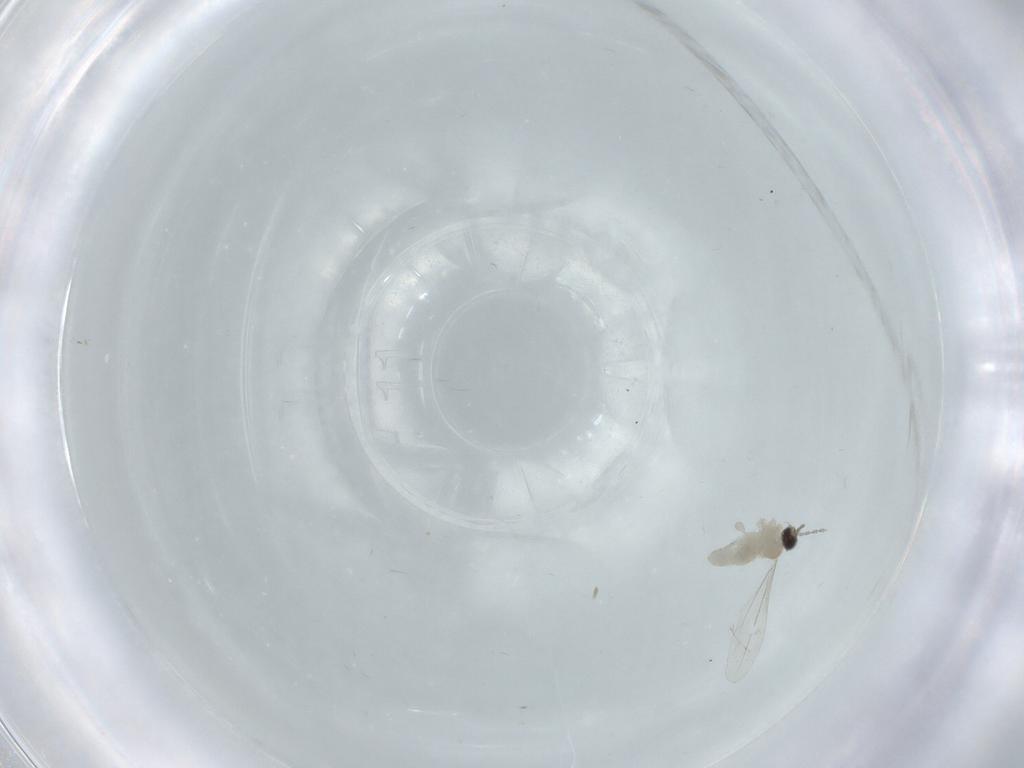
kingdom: Animalia
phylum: Arthropoda
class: Insecta
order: Diptera
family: Cecidomyiidae
